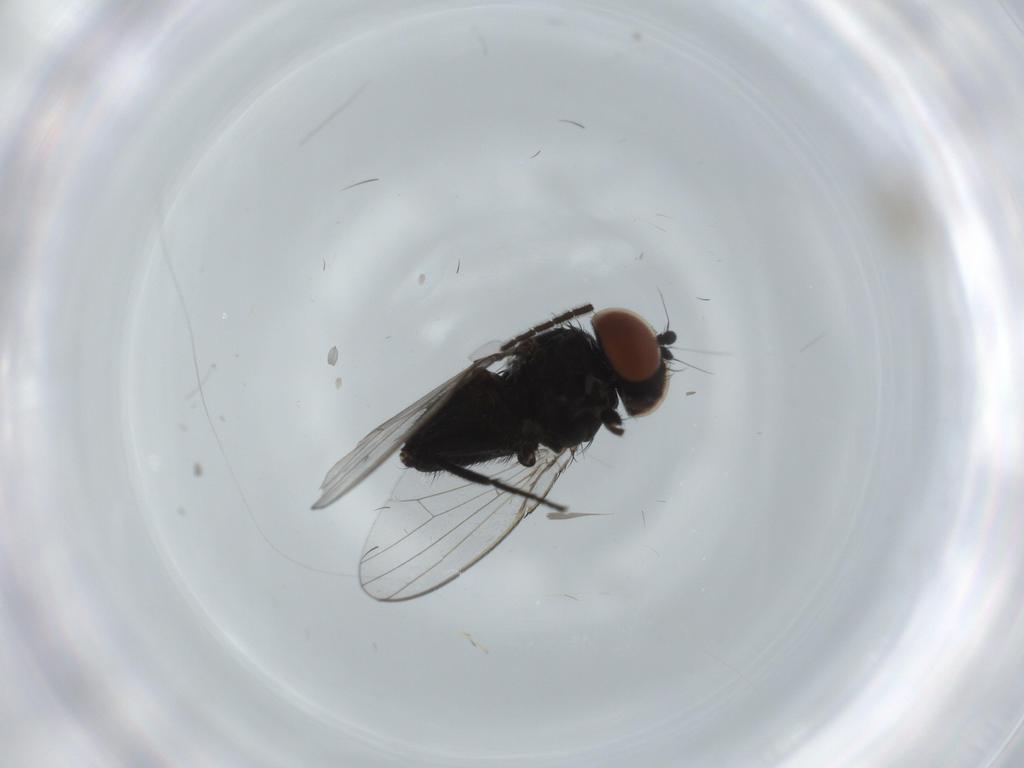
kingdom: Animalia
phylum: Arthropoda
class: Insecta
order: Diptera
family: Milichiidae
